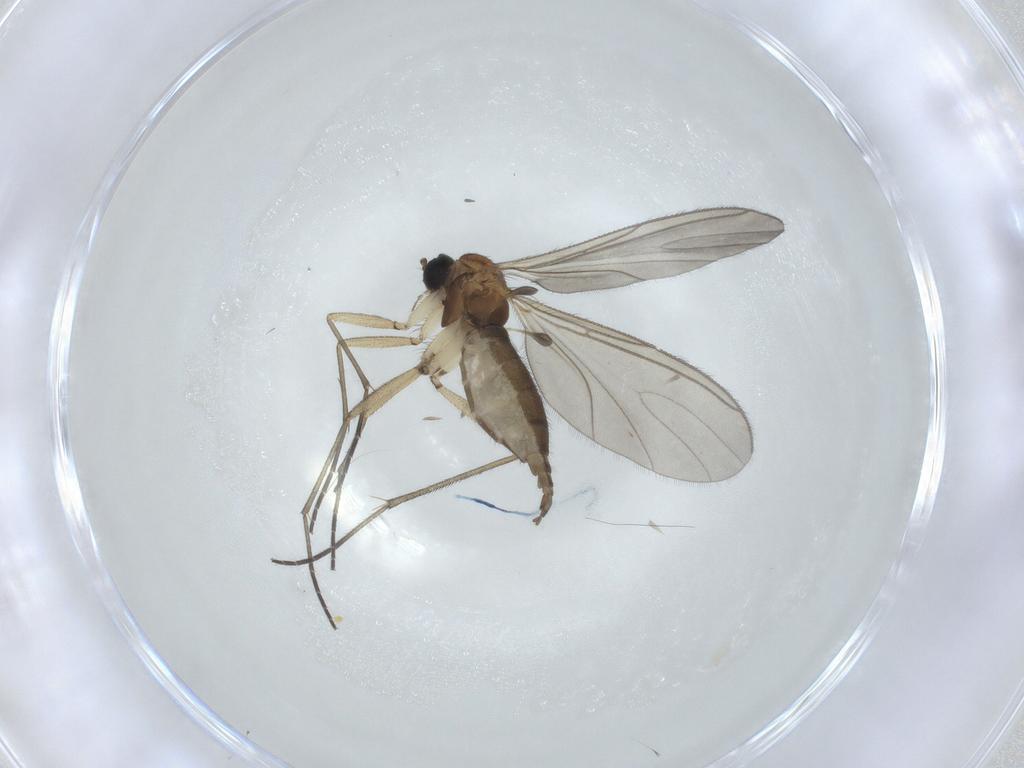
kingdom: Animalia
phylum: Arthropoda
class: Insecta
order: Diptera
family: Sciaridae
